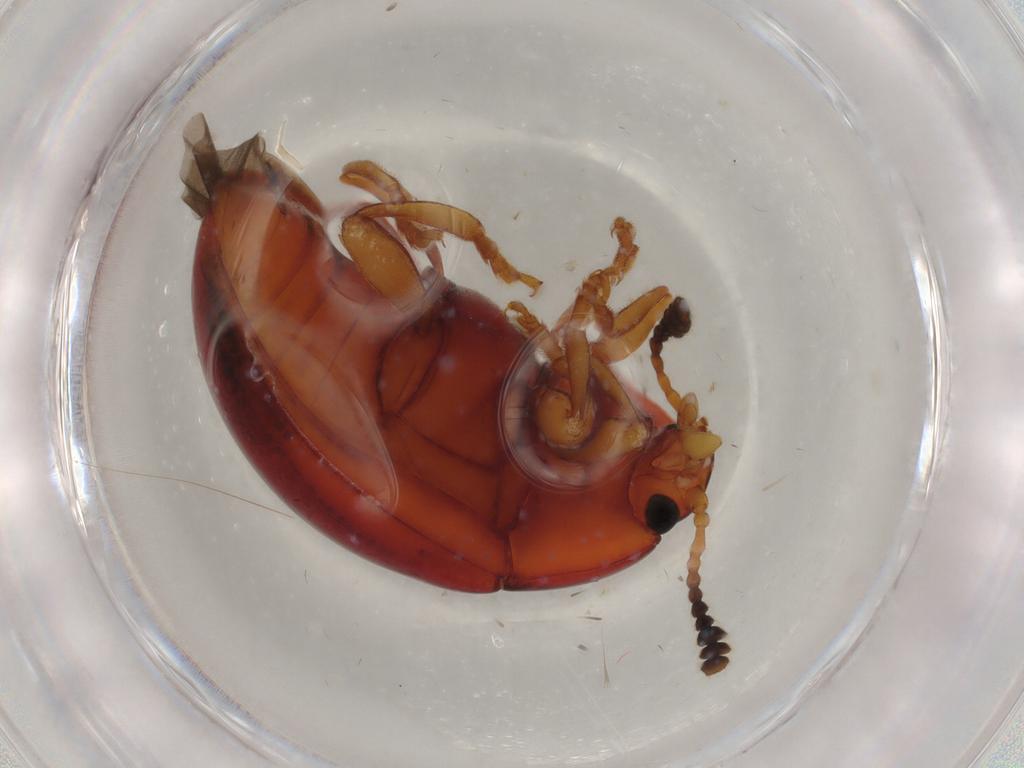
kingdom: Animalia
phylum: Arthropoda
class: Insecta
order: Coleoptera
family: Erotylidae
